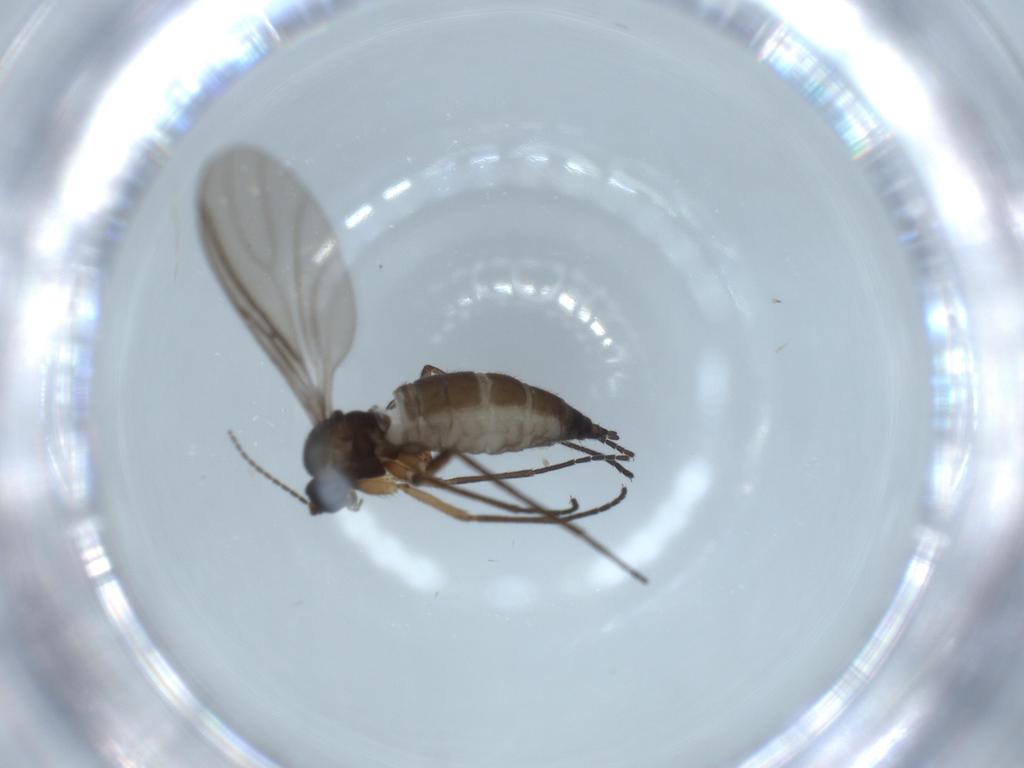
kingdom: Animalia
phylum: Arthropoda
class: Insecta
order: Diptera
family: Sciaridae
